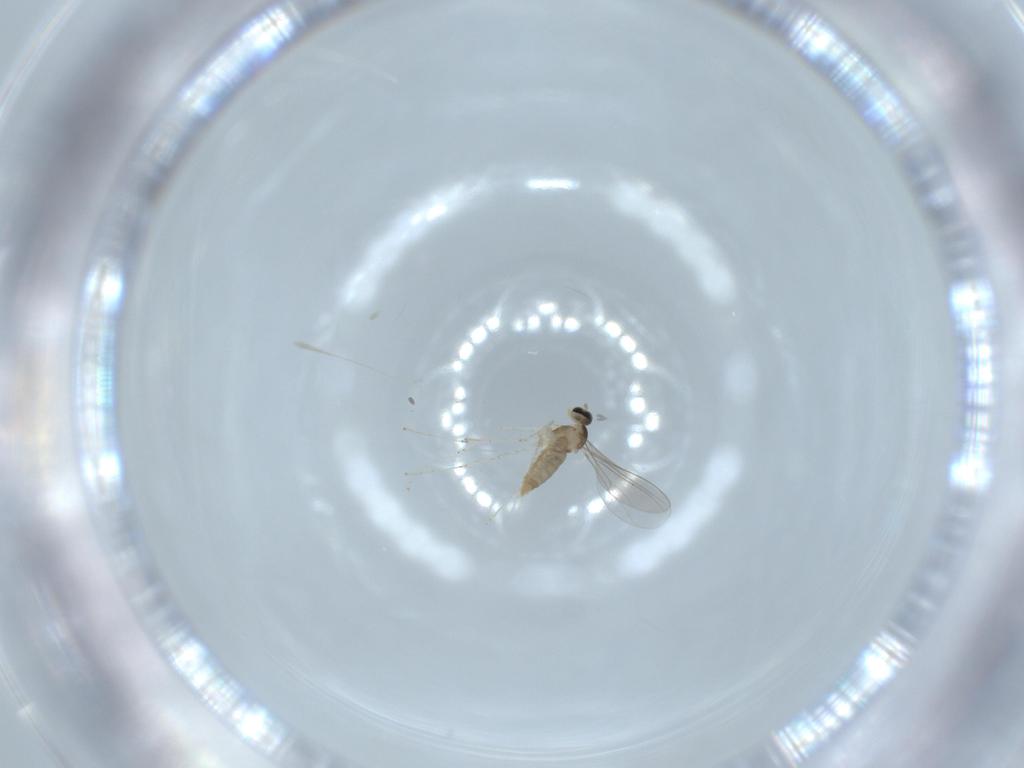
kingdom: Animalia
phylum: Arthropoda
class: Insecta
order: Diptera
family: Cecidomyiidae
